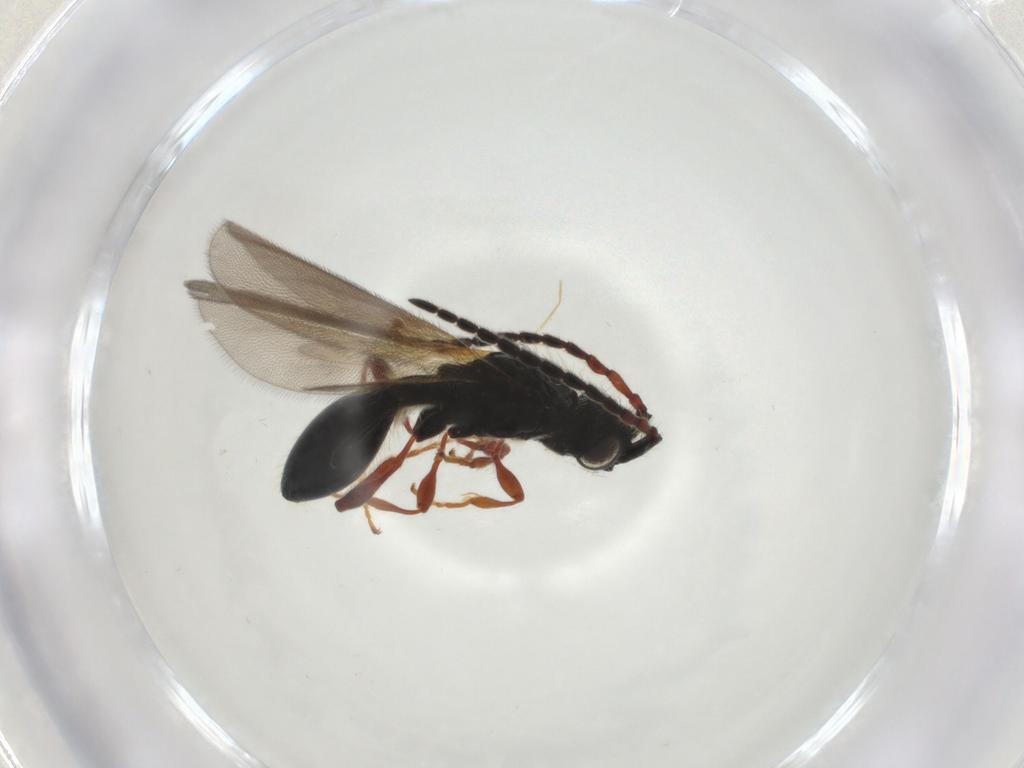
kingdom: Animalia
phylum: Arthropoda
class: Insecta
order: Hymenoptera
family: Diapriidae
